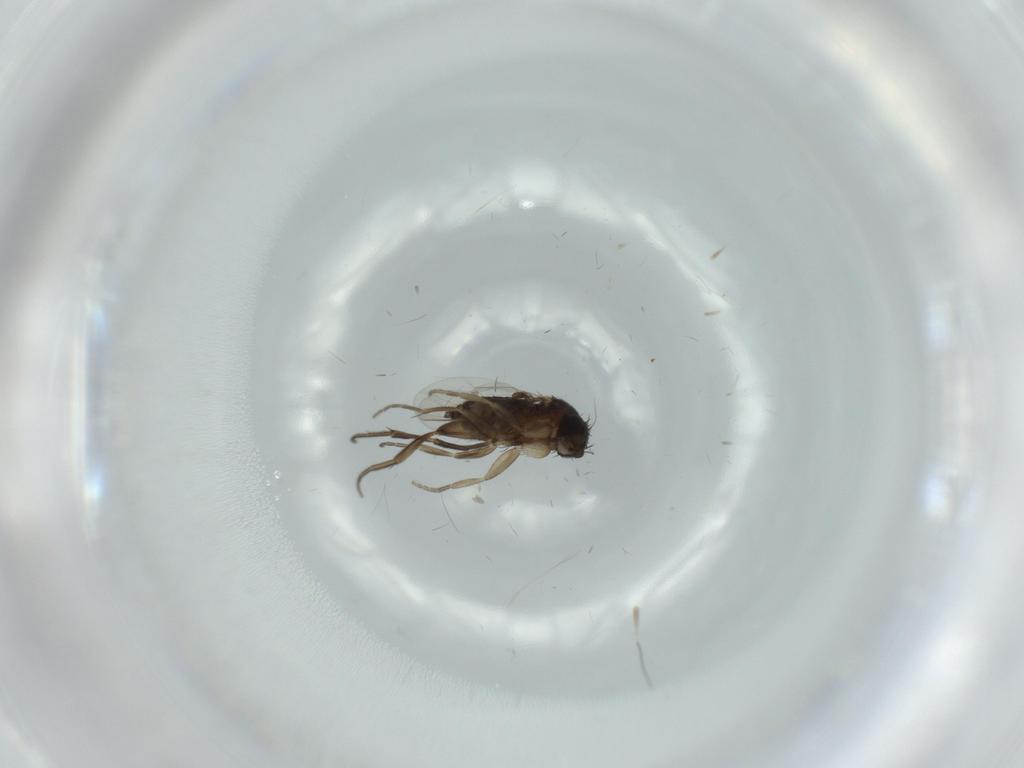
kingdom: Animalia
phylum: Arthropoda
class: Insecta
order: Diptera
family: Phoridae
